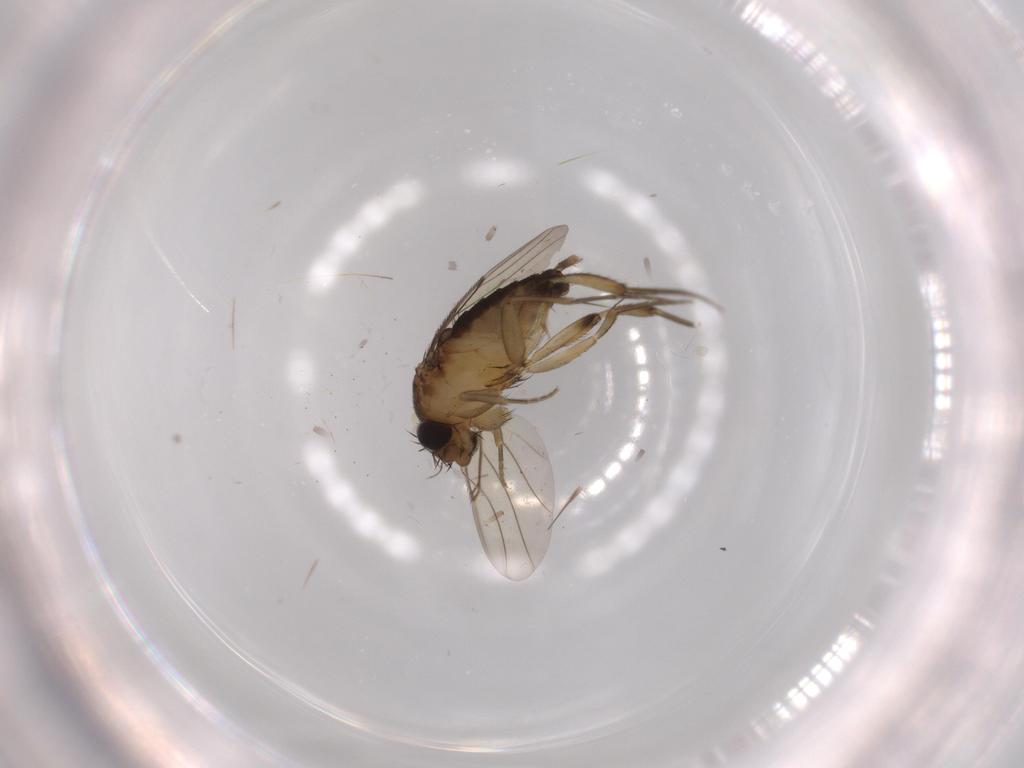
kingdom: Animalia
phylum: Arthropoda
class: Insecta
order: Diptera
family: Phoridae
